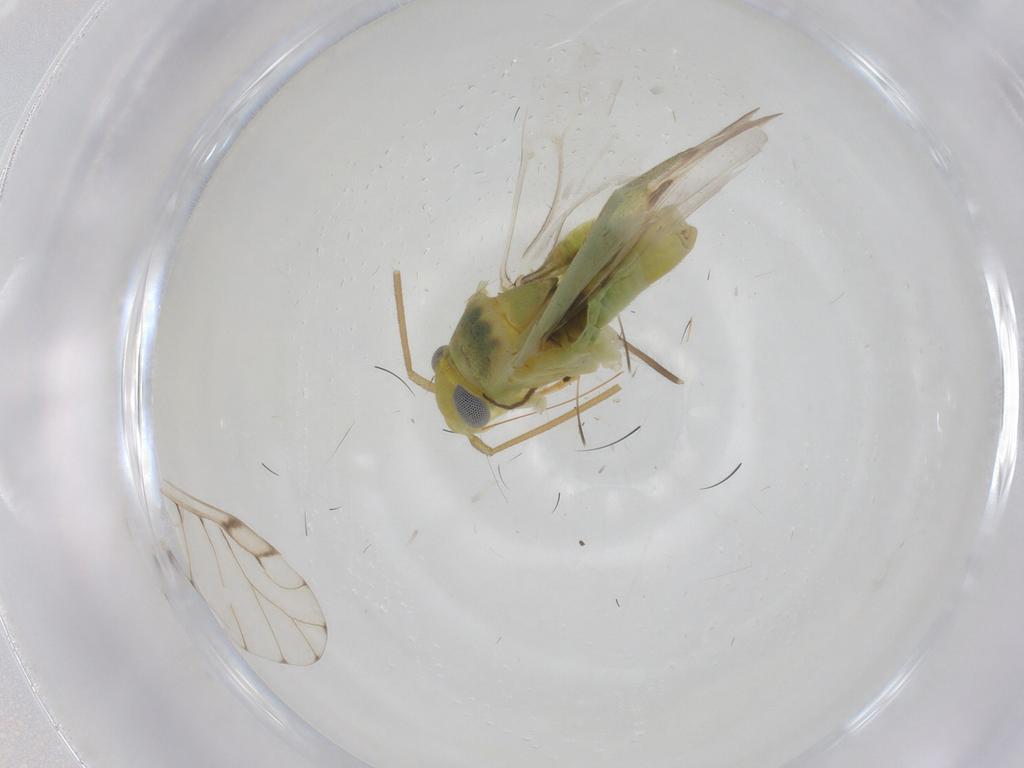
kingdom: Animalia
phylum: Arthropoda
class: Insecta
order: Hemiptera
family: Miridae
